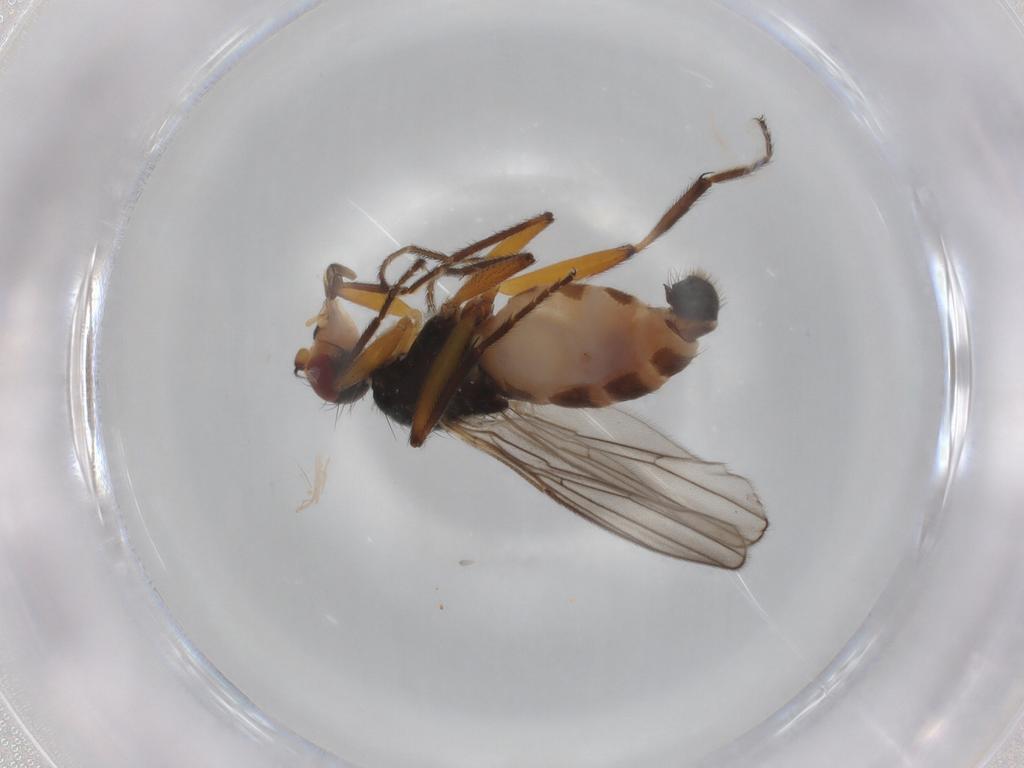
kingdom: Animalia
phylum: Arthropoda
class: Insecta
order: Diptera
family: Chloropidae
